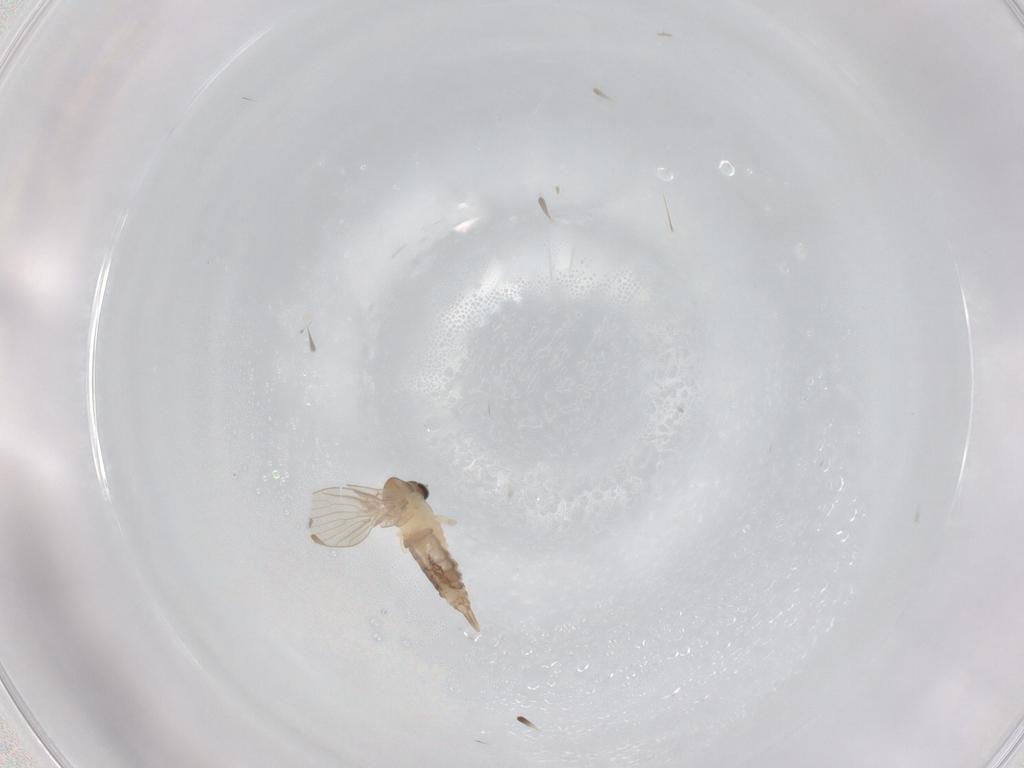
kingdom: Animalia
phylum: Arthropoda
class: Insecta
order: Diptera
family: Psychodidae
